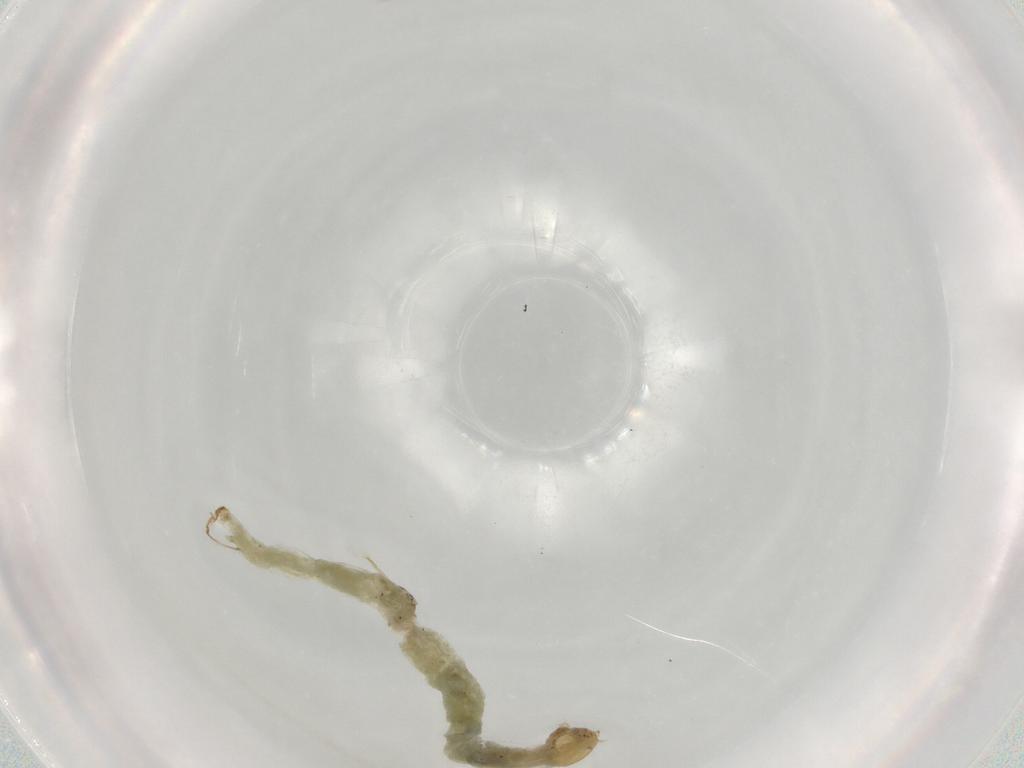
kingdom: Animalia
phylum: Arthropoda
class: Insecta
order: Diptera
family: Chironomidae
